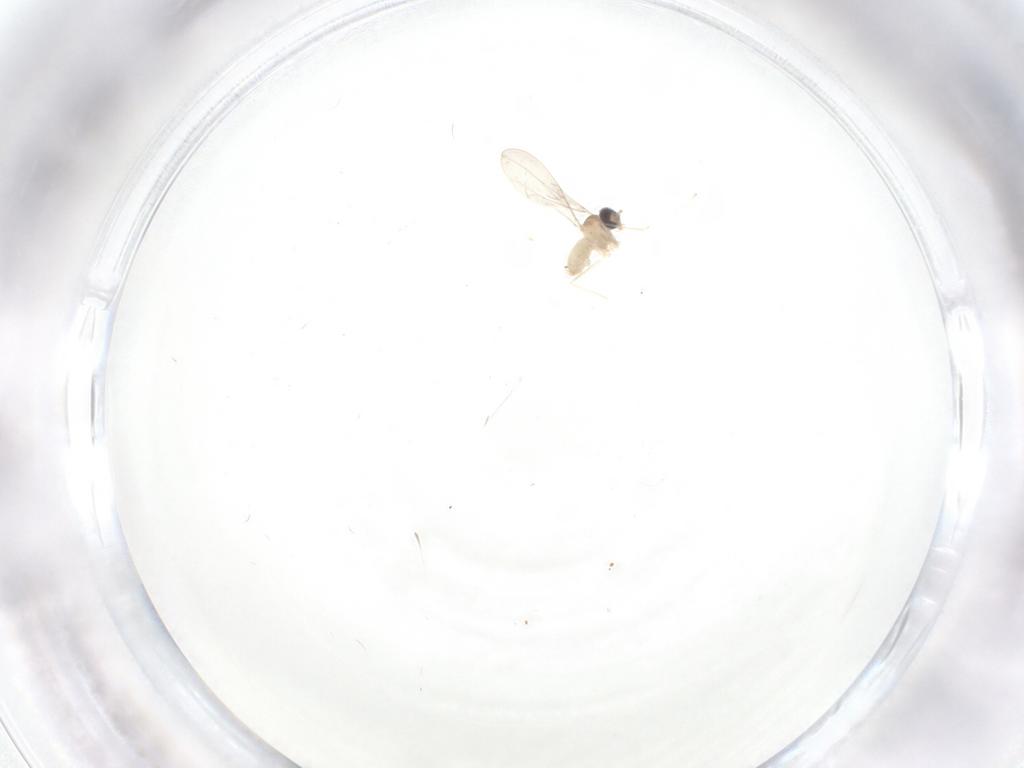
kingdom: Animalia
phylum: Arthropoda
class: Insecta
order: Diptera
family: Cecidomyiidae
